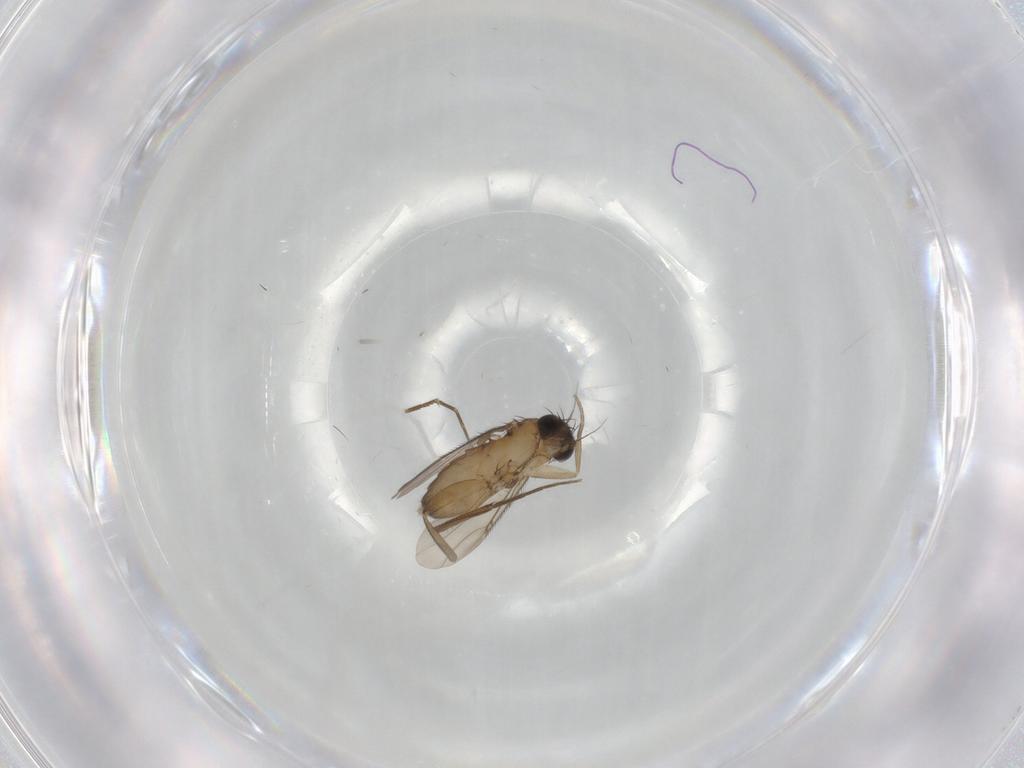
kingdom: Animalia
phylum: Arthropoda
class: Insecta
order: Diptera
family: Phoridae
